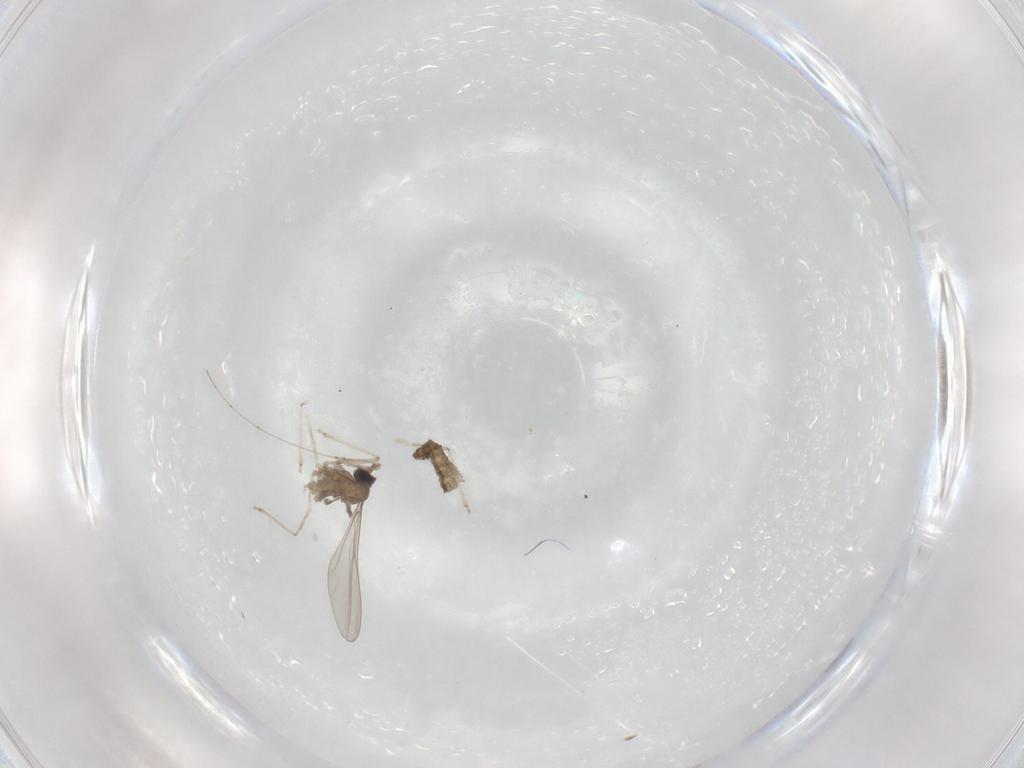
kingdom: Animalia
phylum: Arthropoda
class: Insecta
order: Diptera
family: Cecidomyiidae
